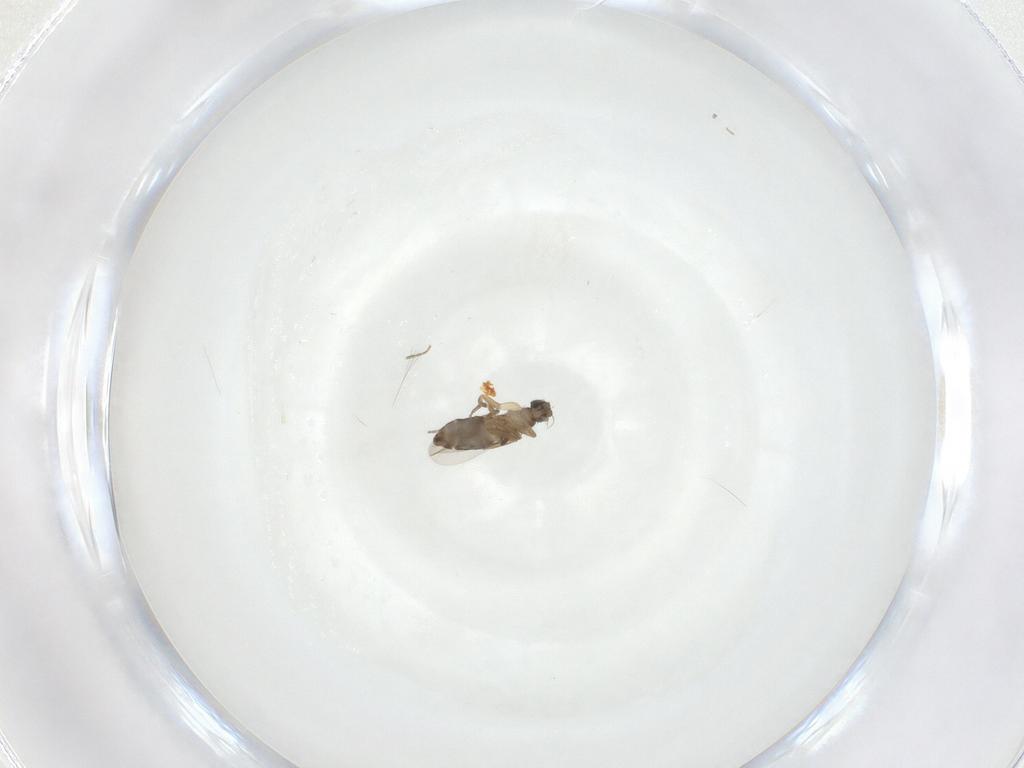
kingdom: Animalia
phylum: Arthropoda
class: Insecta
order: Diptera
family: Phoridae
